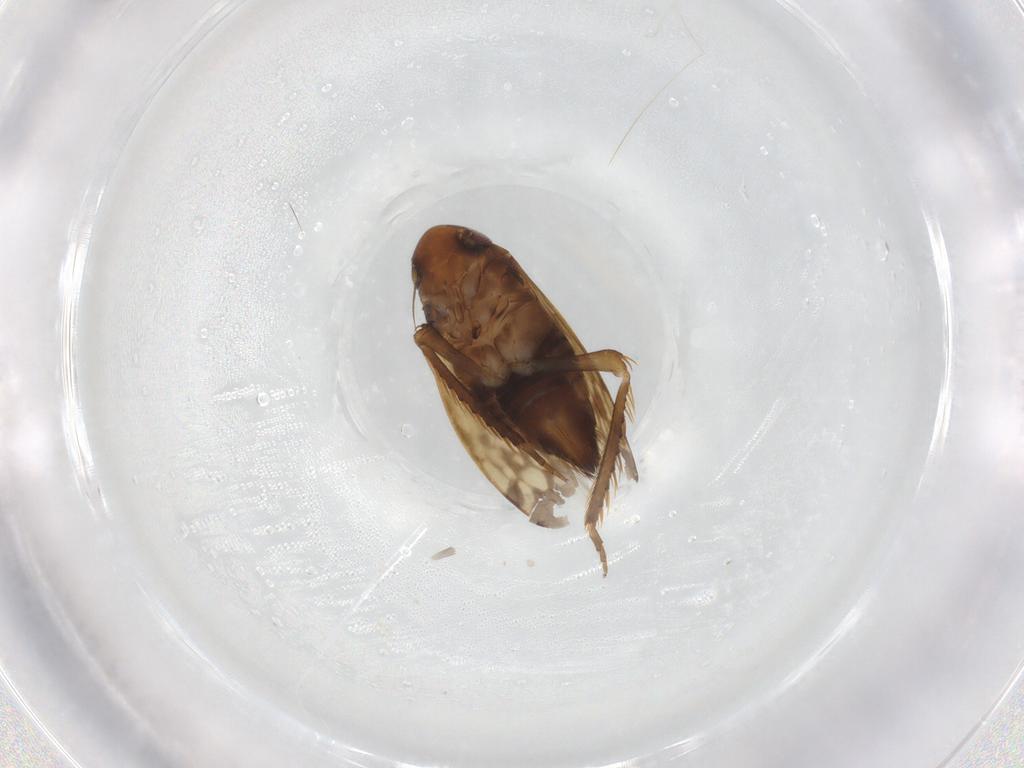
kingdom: Animalia
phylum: Arthropoda
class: Insecta
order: Hemiptera
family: Cicadellidae
